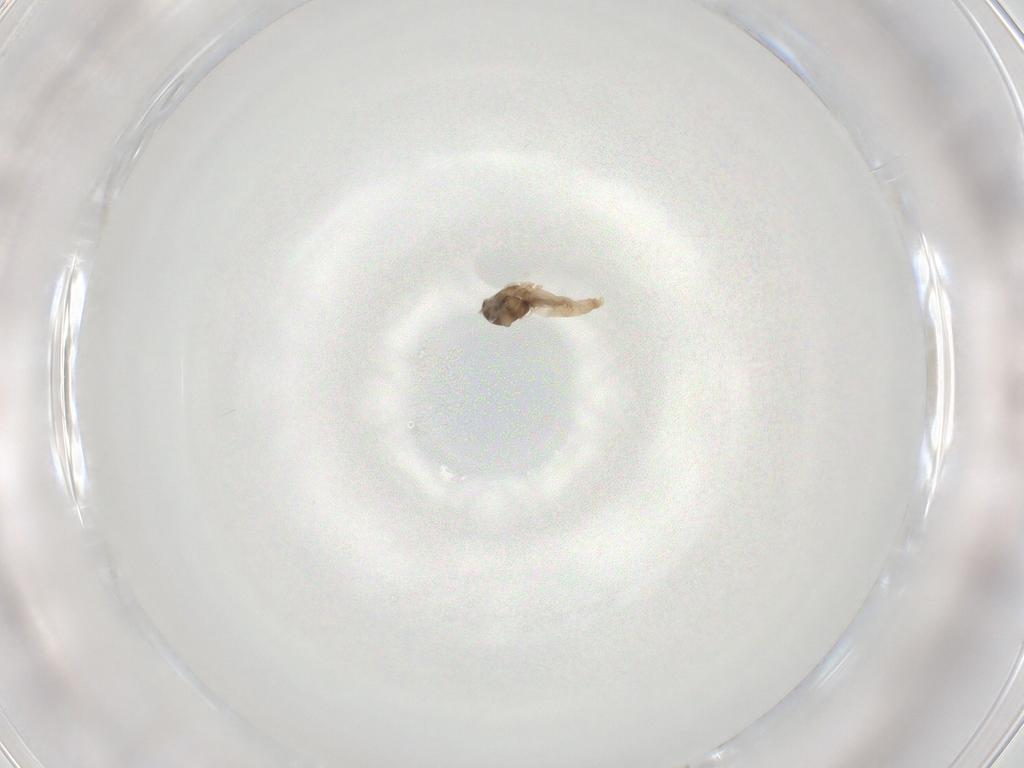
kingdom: Animalia
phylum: Arthropoda
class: Insecta
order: Diptera
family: Cecidomyiidae
